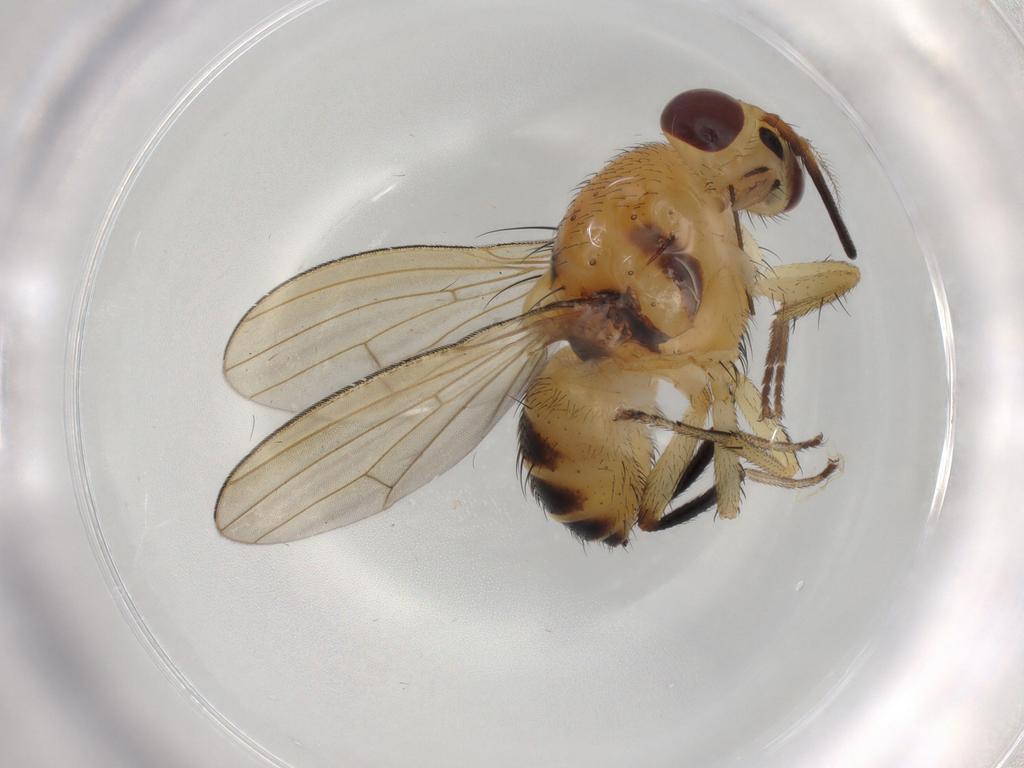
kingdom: Animalia
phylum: Arthropoda
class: Insecta
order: Diptera
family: Lauxaniidae
